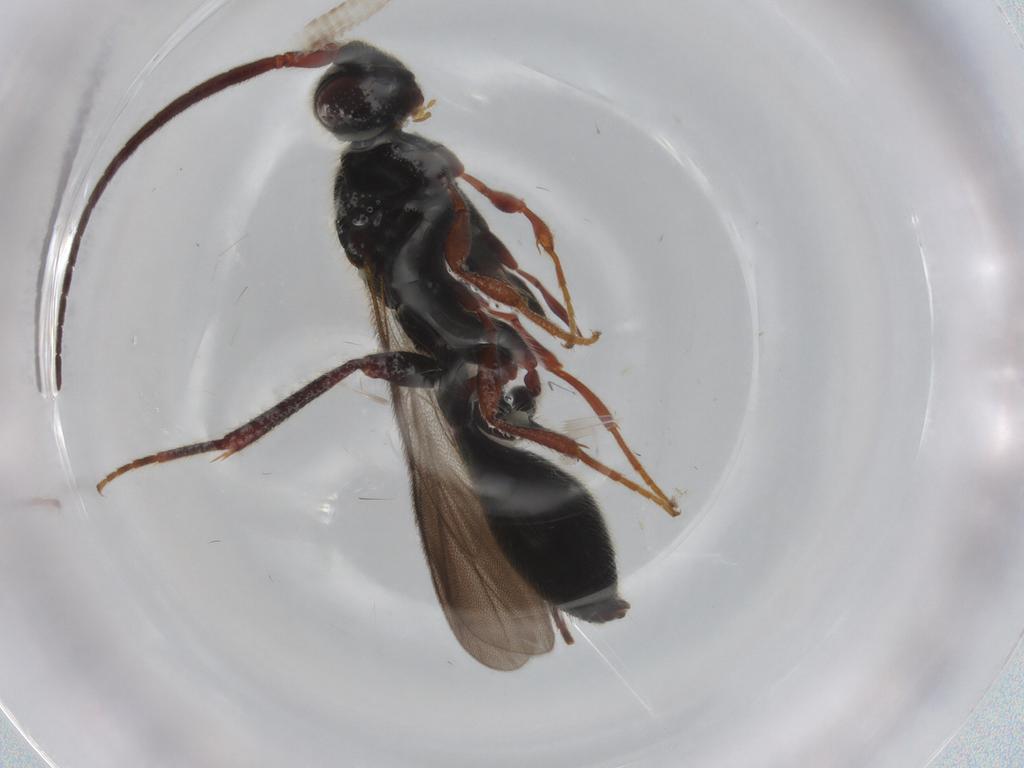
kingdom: Animalia
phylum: Arthropoda
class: Insecta
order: Hymenoptera
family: Diapriidae
